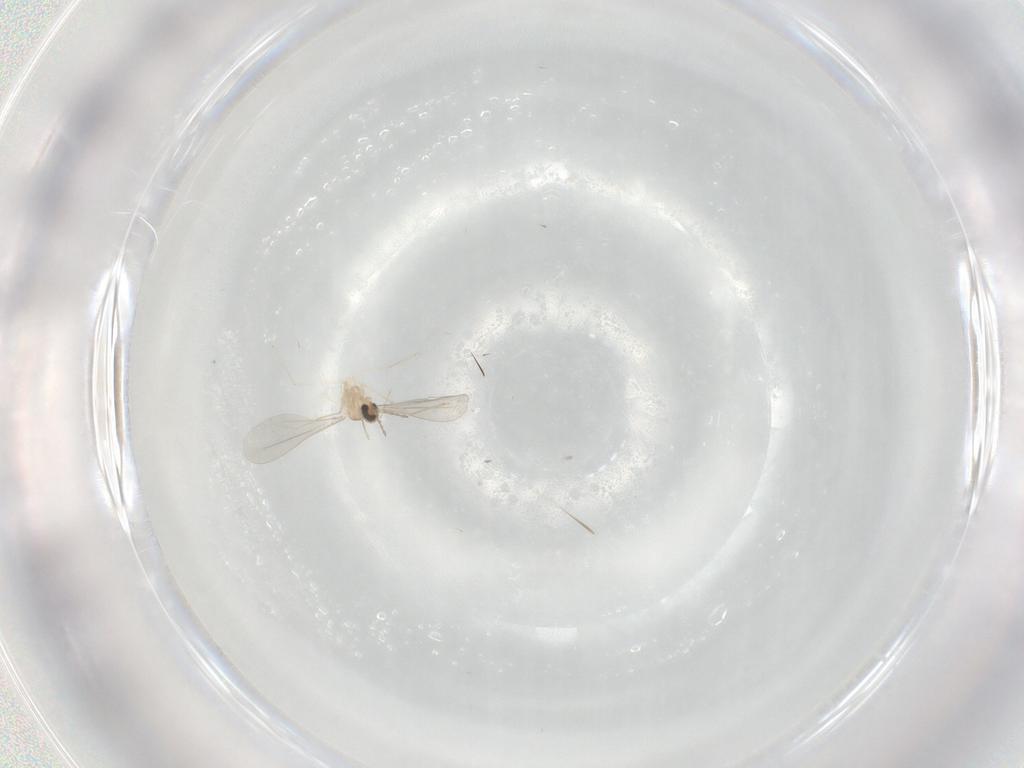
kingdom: Animalia
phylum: Arthropoda
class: Insecta
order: Diptera
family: Cecidomyiidae
